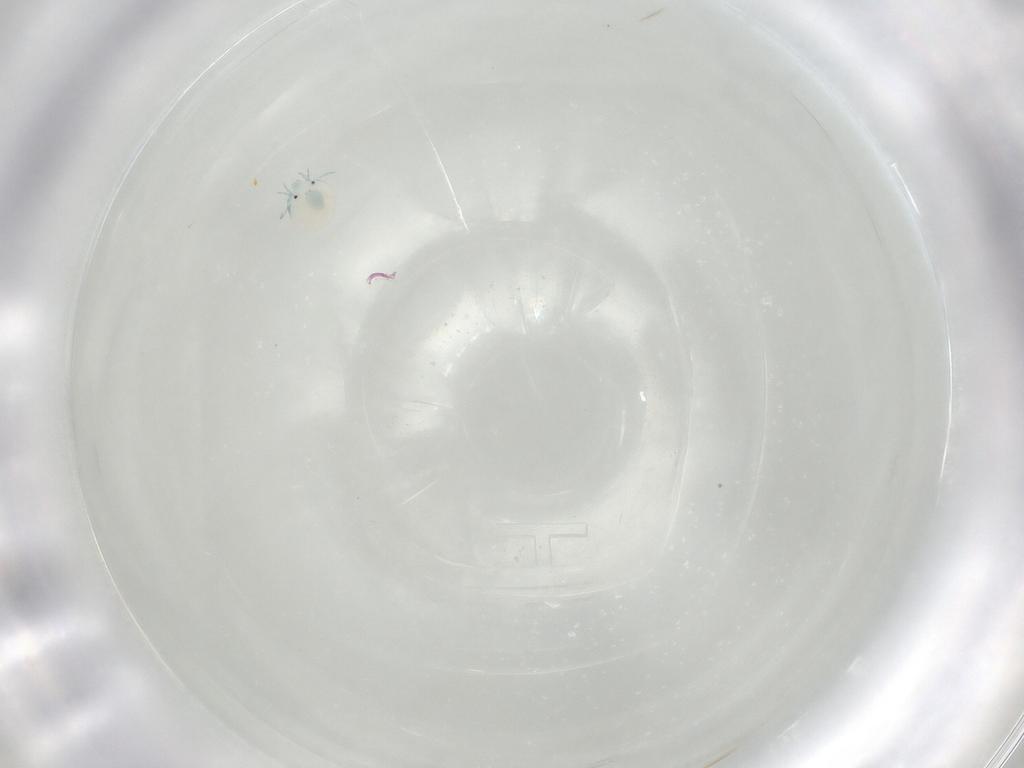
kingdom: Animalia
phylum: Arthropoda
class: Arachnida
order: Trombidiformes
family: Arrenuridae
